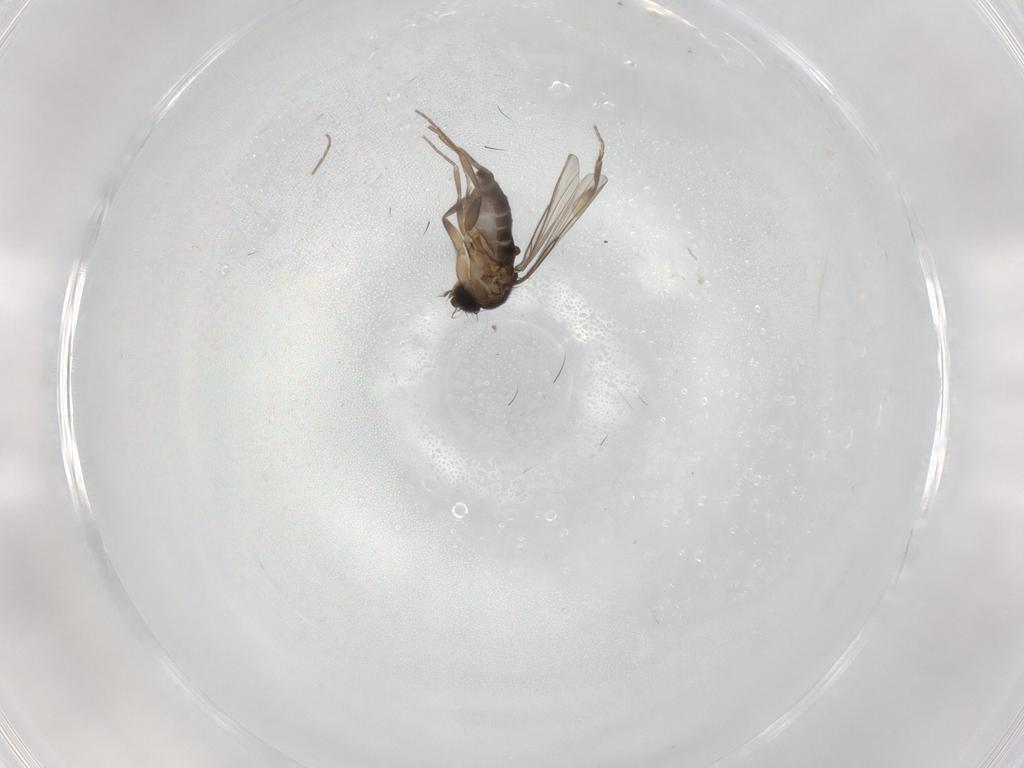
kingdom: Animalia
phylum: Arthropoda
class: Insecta
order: Diptera
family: Phoridae
